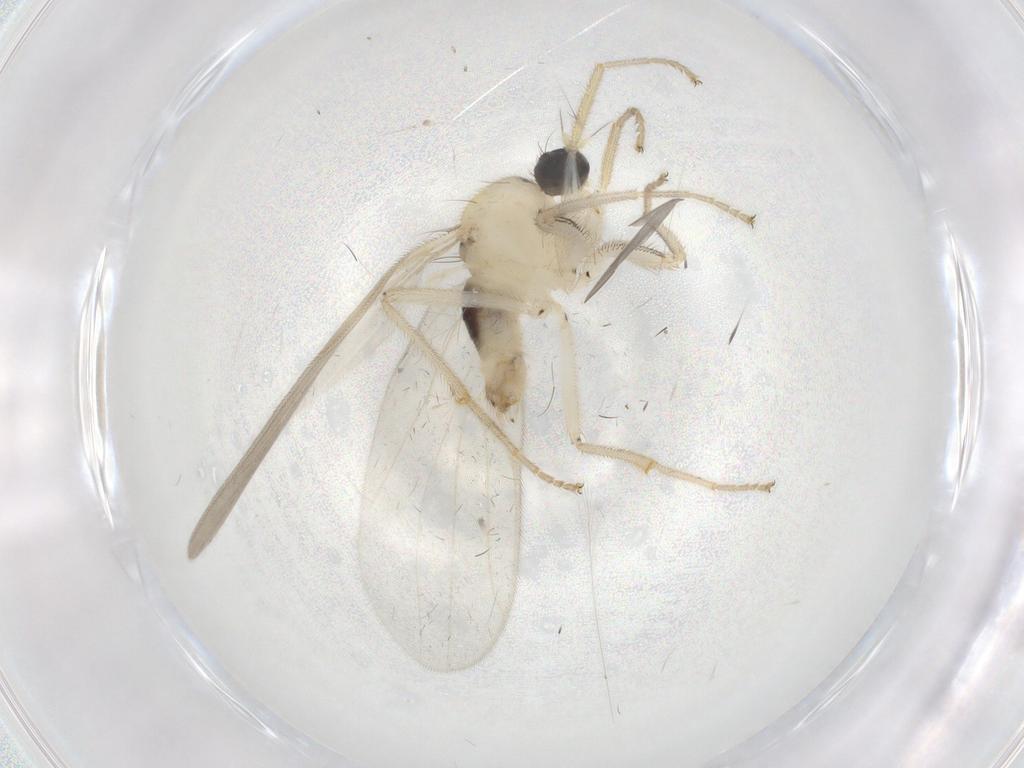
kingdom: Animalia
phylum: Arthropoda
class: Insecta
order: Diptera
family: Hybotidae
